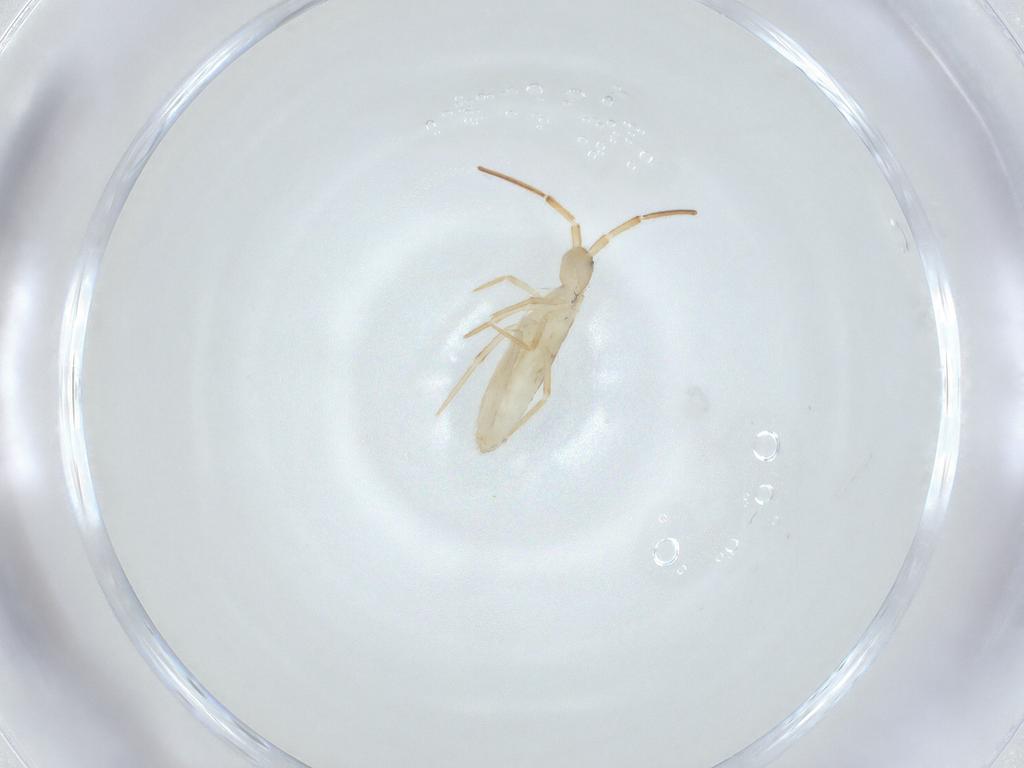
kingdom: Animalia
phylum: Arthropoda
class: Collembola
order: Entomobryomorpha
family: Entomobryidae
